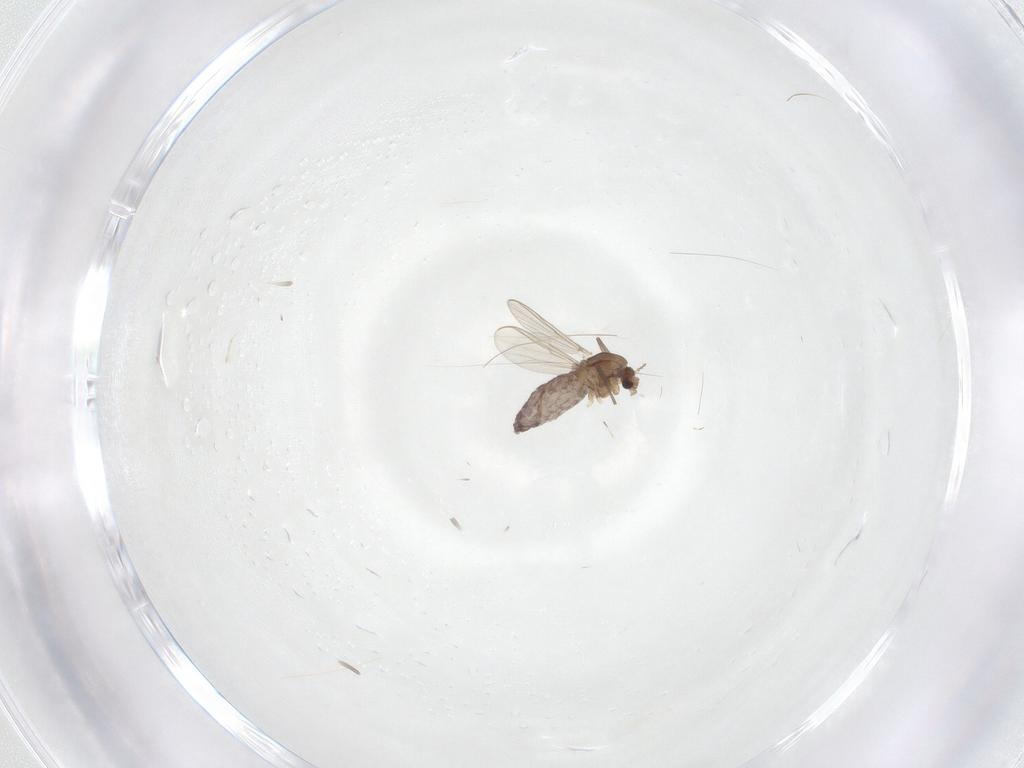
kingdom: Animalia
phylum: Arthropoda
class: Insecta
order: Diptera
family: Chironomidae
